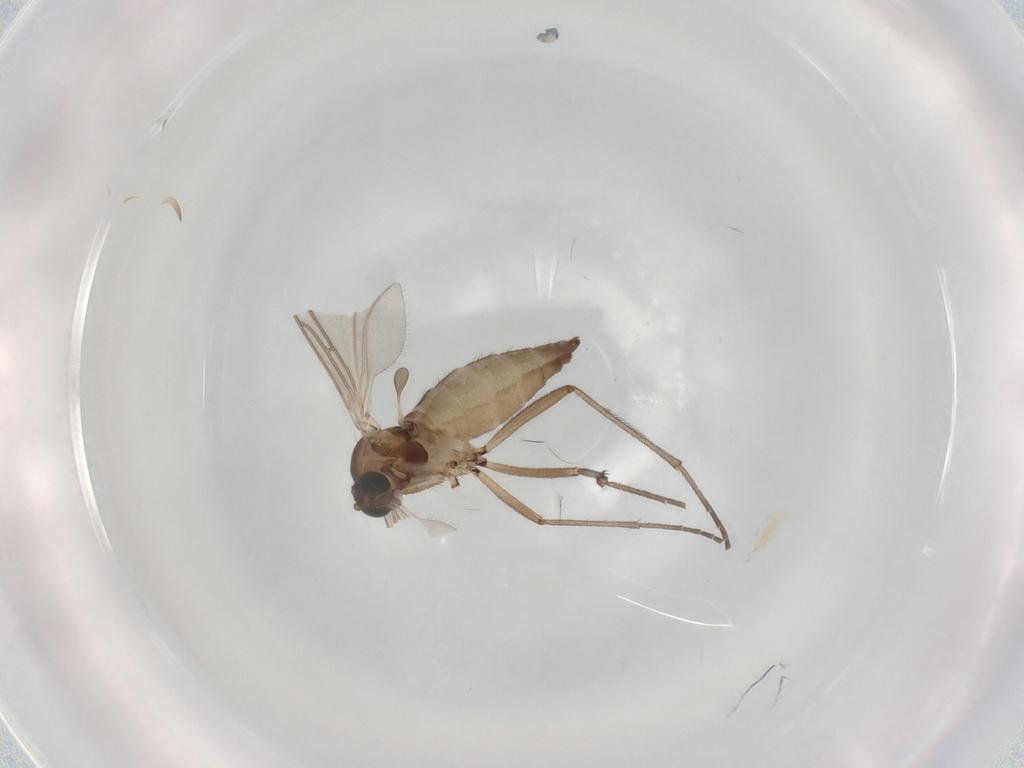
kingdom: Animalia
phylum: Arthropoda
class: Insecta
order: Diptera
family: Sciaridae
